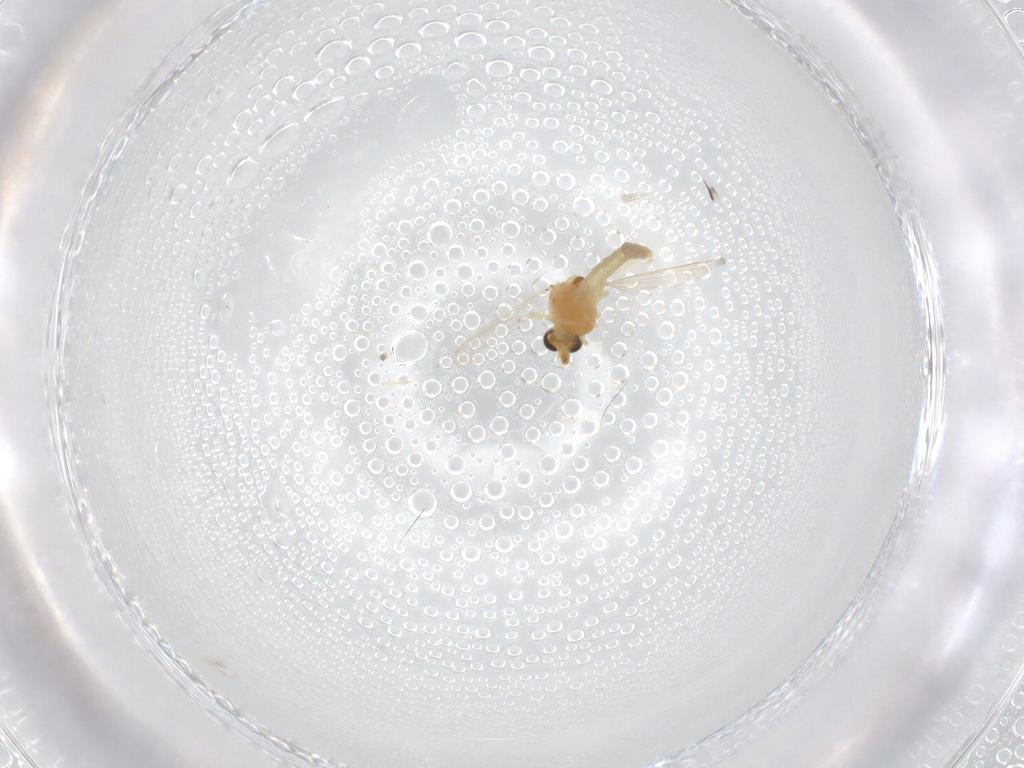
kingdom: Animalia
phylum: Arthropoda
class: Insecta
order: Diptera
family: Chironomidae
